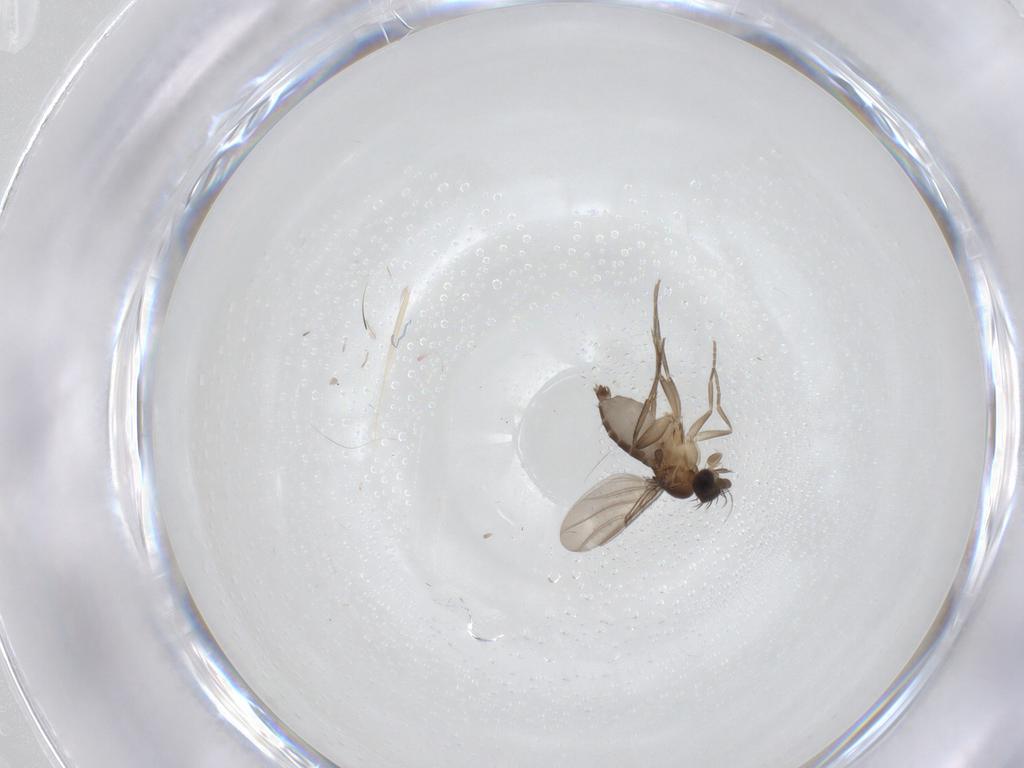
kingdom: Animalia
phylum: Arthropoda
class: Insecta
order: Diptera
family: Phoridae
